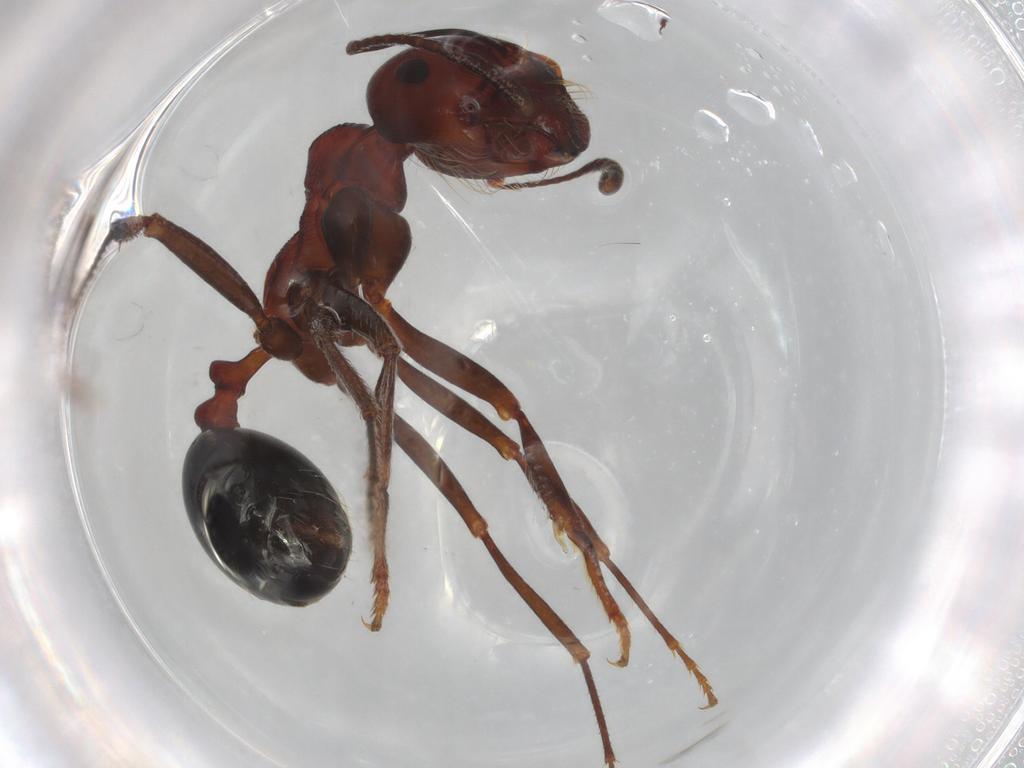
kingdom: Animalia
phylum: Arthropoda
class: Insecta
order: Hymenoptera
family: Formicidae
